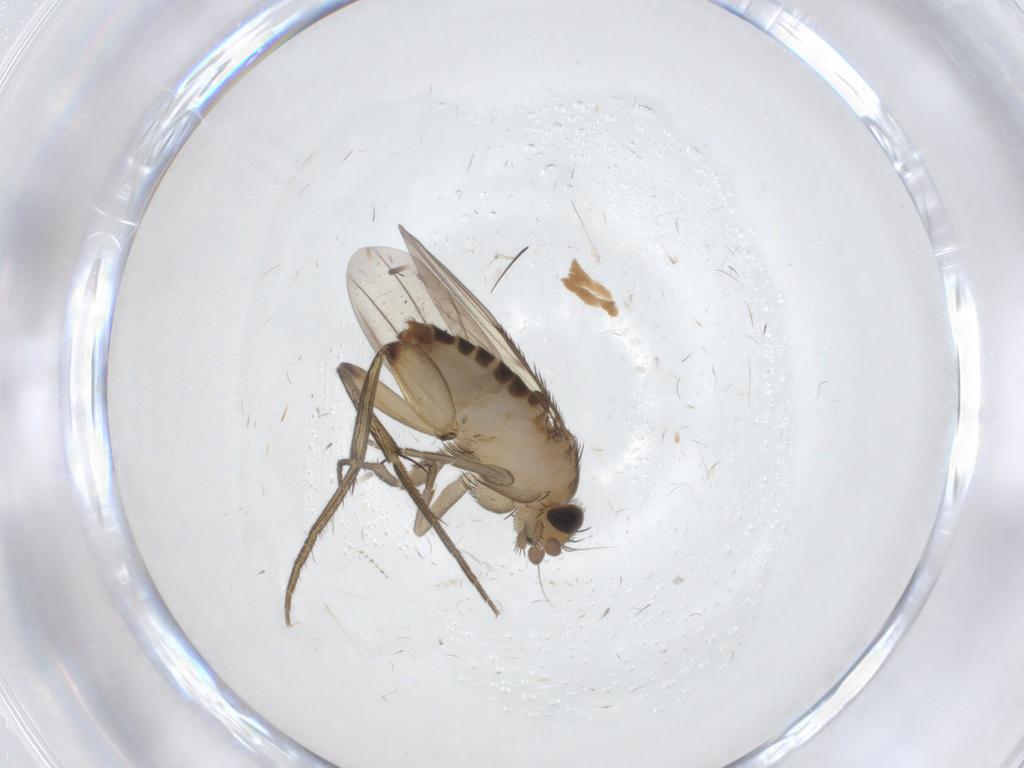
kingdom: Animalia
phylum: Arthropoda
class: Insecta
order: Diptera
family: Phoridae
